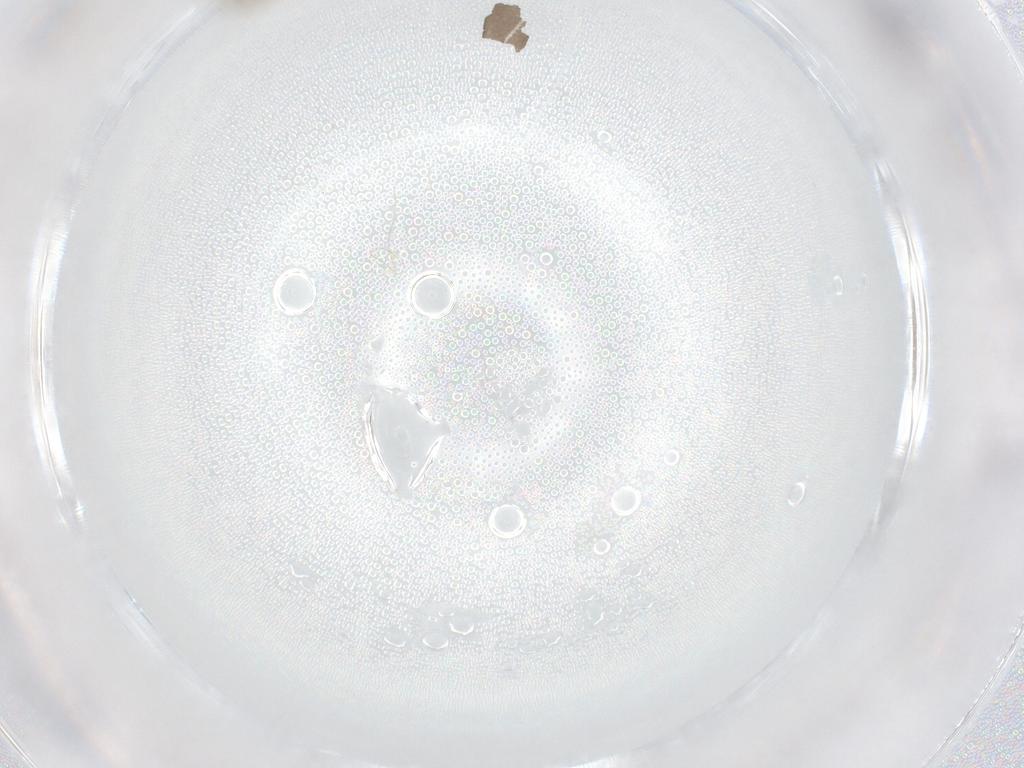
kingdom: Animalia
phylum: Arthropoda
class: Insecta
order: Diptera
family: Psychodidae
